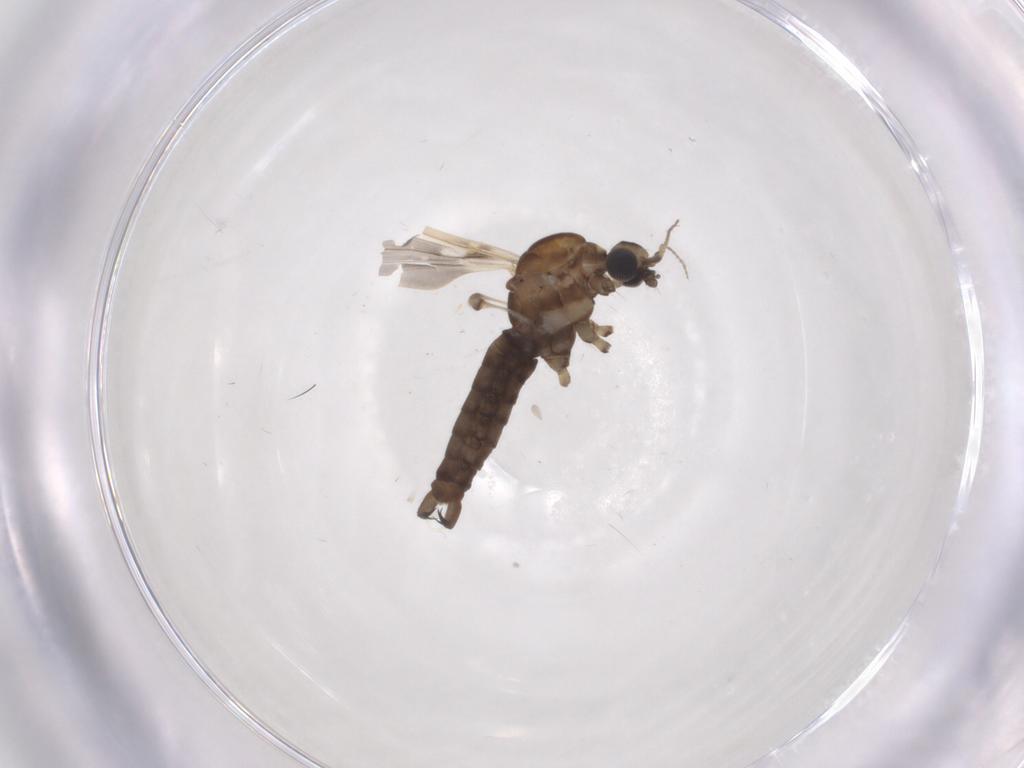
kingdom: Animalia
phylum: Arthropoda
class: Insecta
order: Diptera
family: Limoniidae
